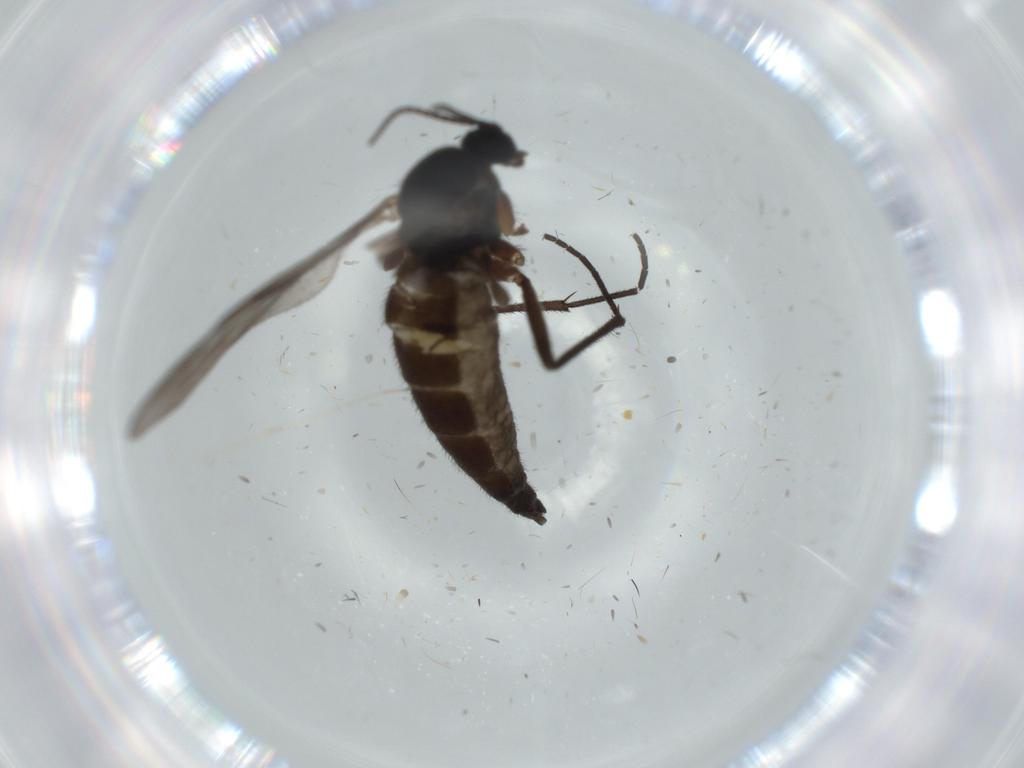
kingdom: Animalia
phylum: Arthropoda
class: Insecta
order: Diptera
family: Sciaridae
